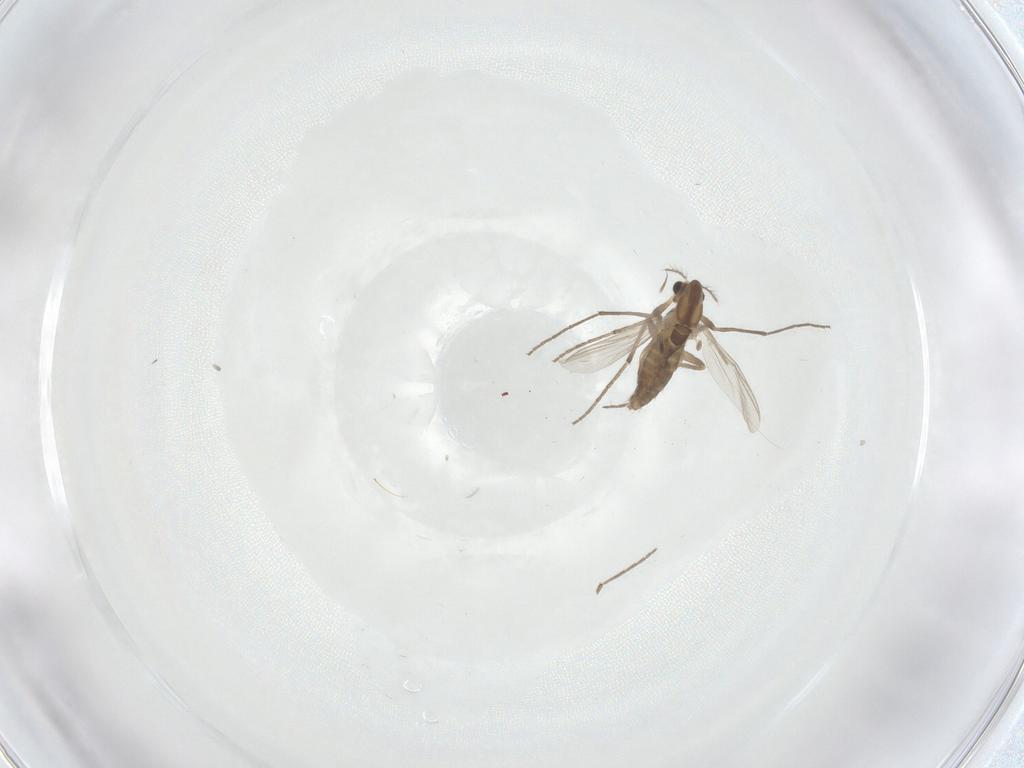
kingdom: Animalia
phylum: Arthropoda
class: Insecta
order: Diptera
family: Chironomidae
